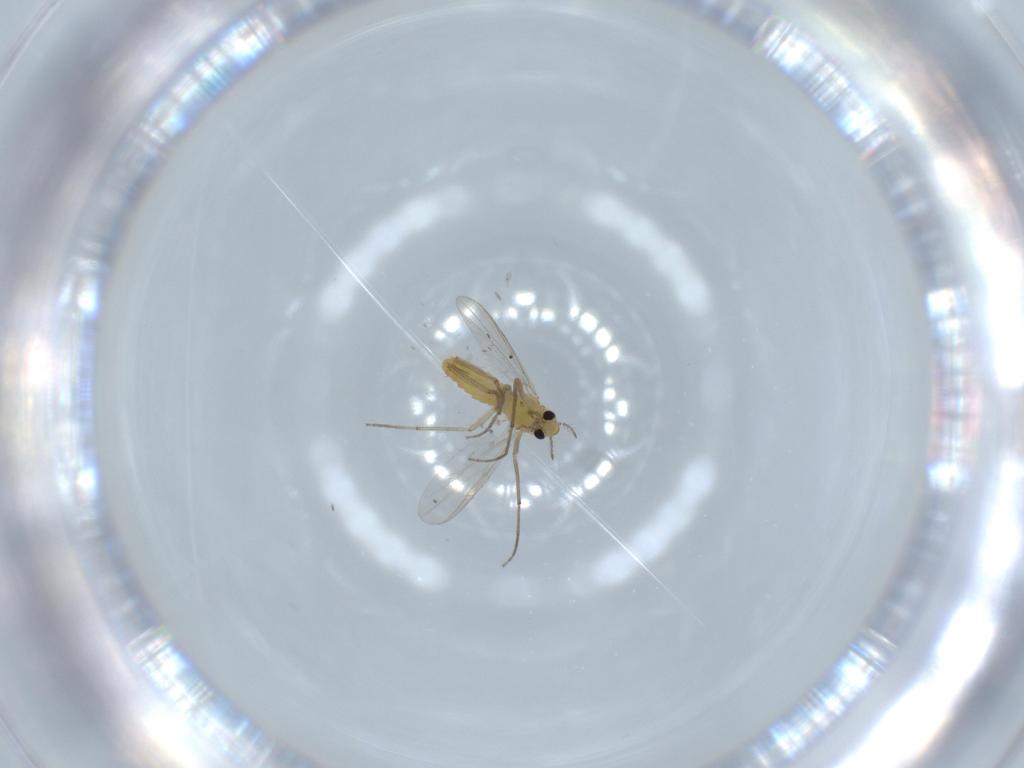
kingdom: Animalia
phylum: Arthropoda
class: Insecta
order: Diptera
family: Chironomidae
